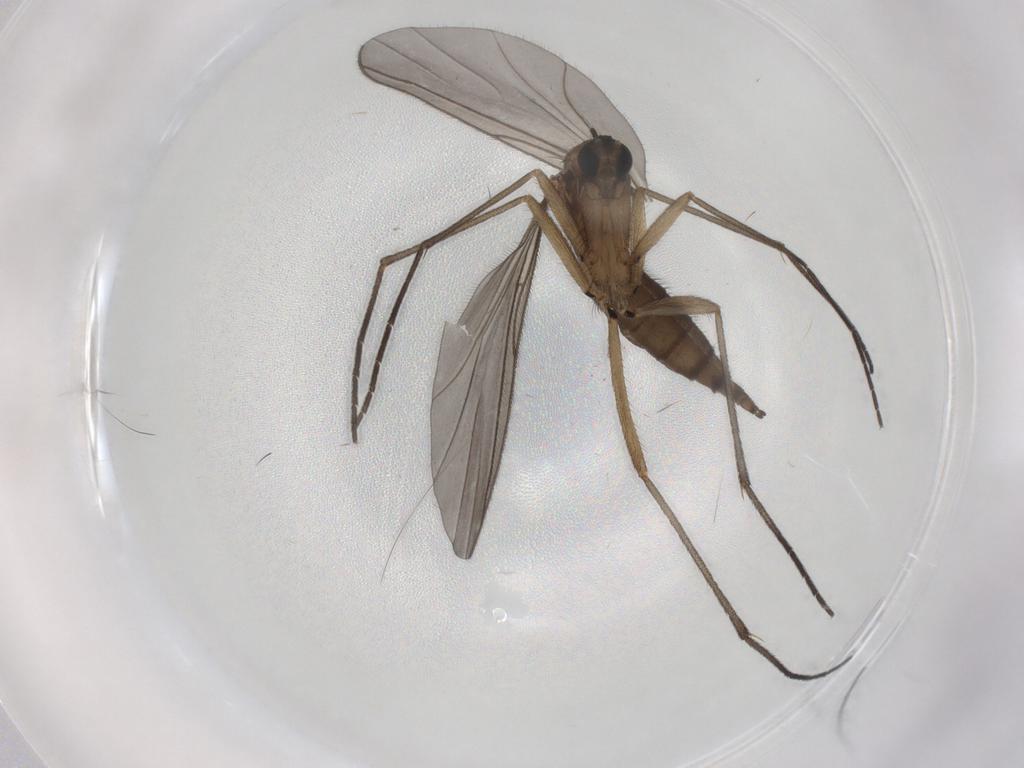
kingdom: Animalia
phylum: Arthropoda
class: Insecta
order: Diptera
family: Sciaridae
